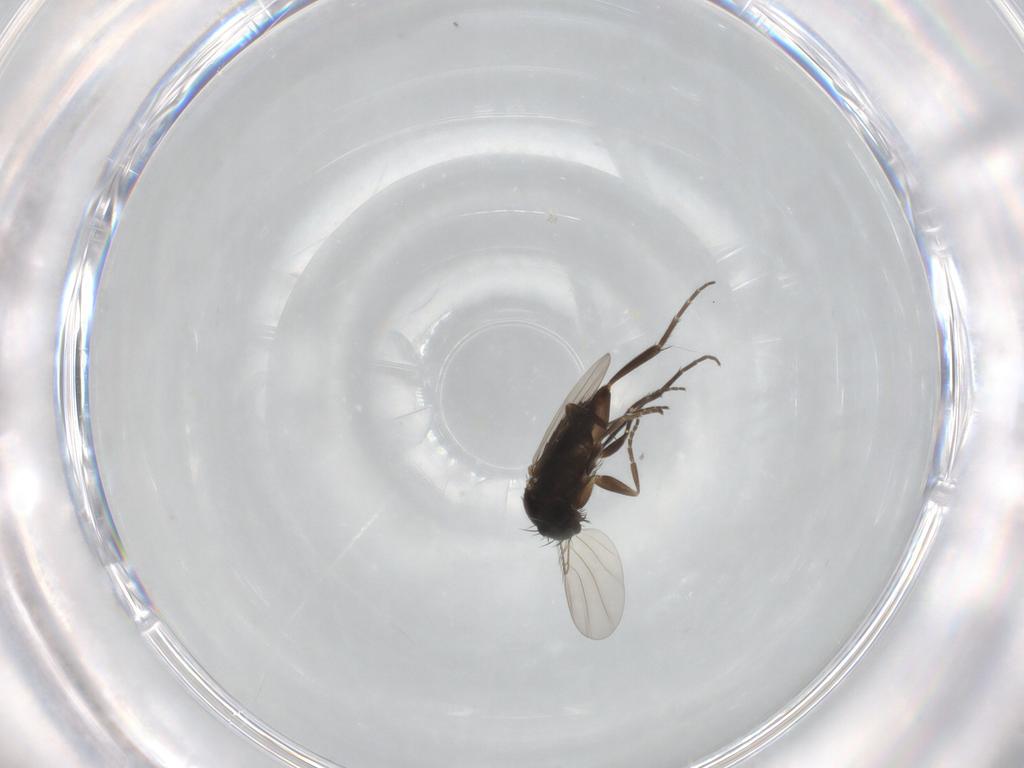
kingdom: Animalia
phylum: Arthropoda
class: Insecta
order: Diptera
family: Phoridae
